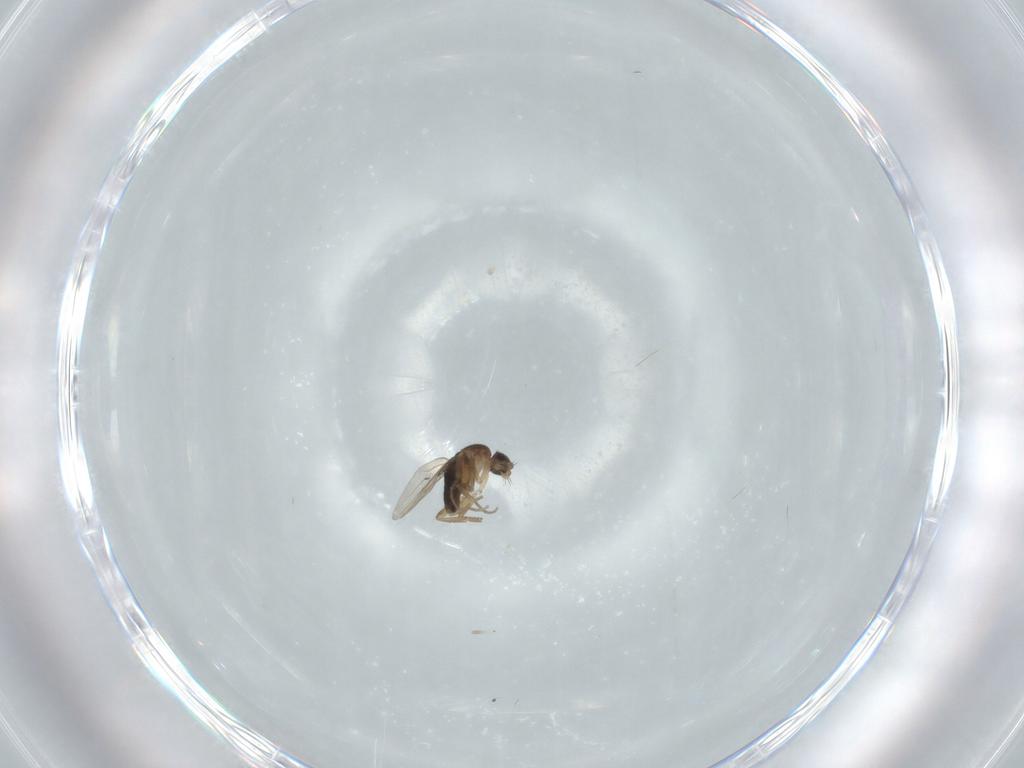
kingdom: Animalia
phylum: Arthropoda
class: Insecta
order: Diptera
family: Phoridae
